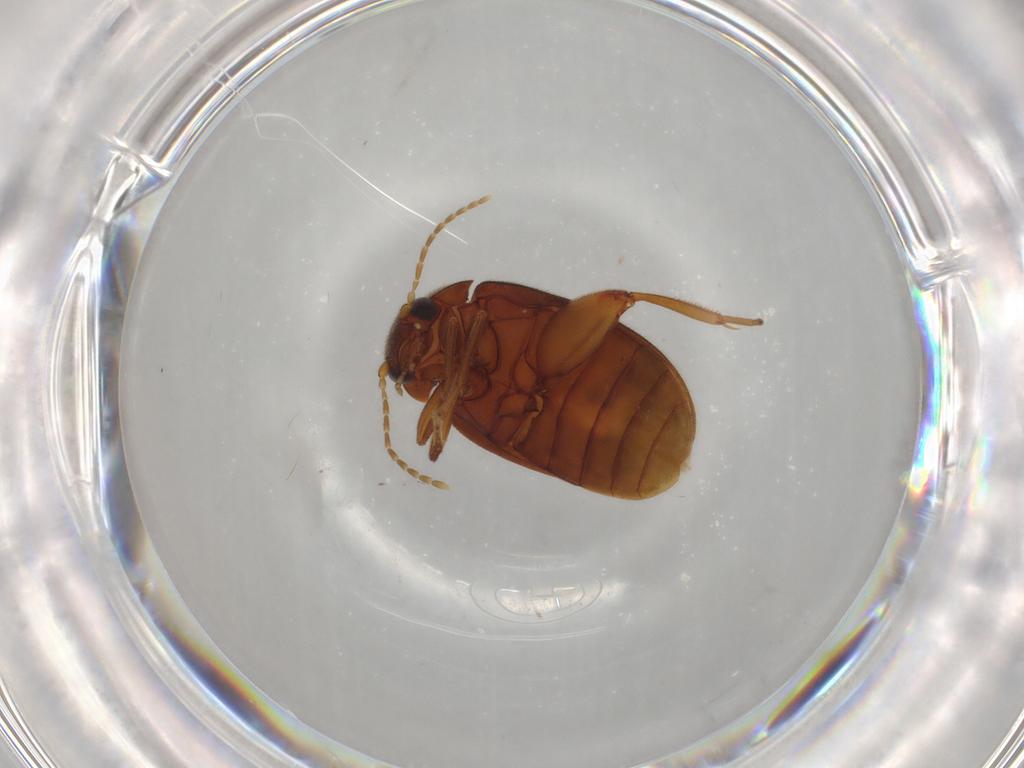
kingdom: Animalia
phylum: Arthropoda
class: Insecta
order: Coleoptera
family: Scirtidae
